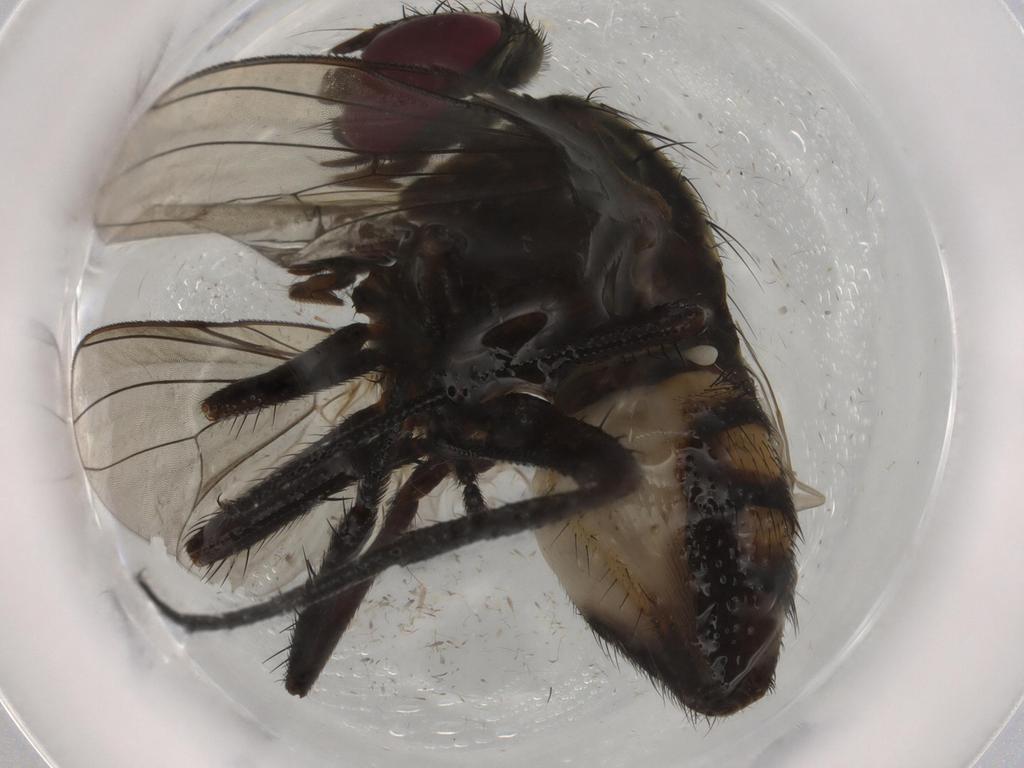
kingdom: Animalia
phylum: Arthropoda
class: Insecta
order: Diptera
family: Fannia
